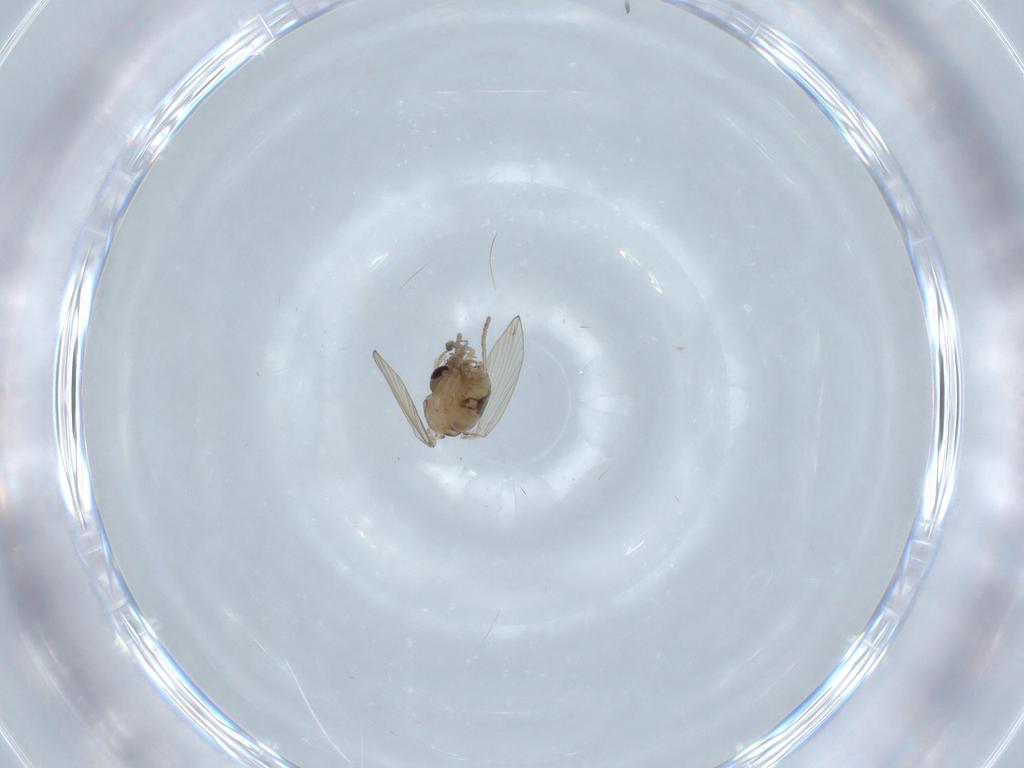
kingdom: Animalia
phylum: Arthropoda
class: Insecta
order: Diptera
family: Psychodidae
